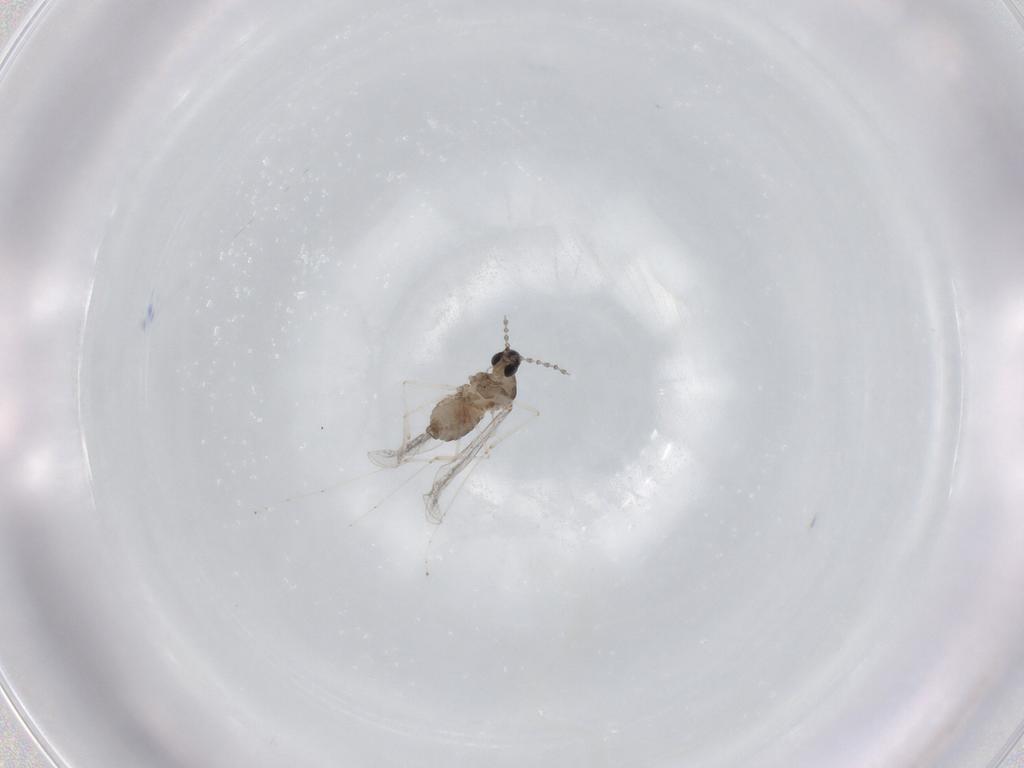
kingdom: Animalia
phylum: Arthropoda
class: Insecta
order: Diptera
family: Cecidomyiidae
